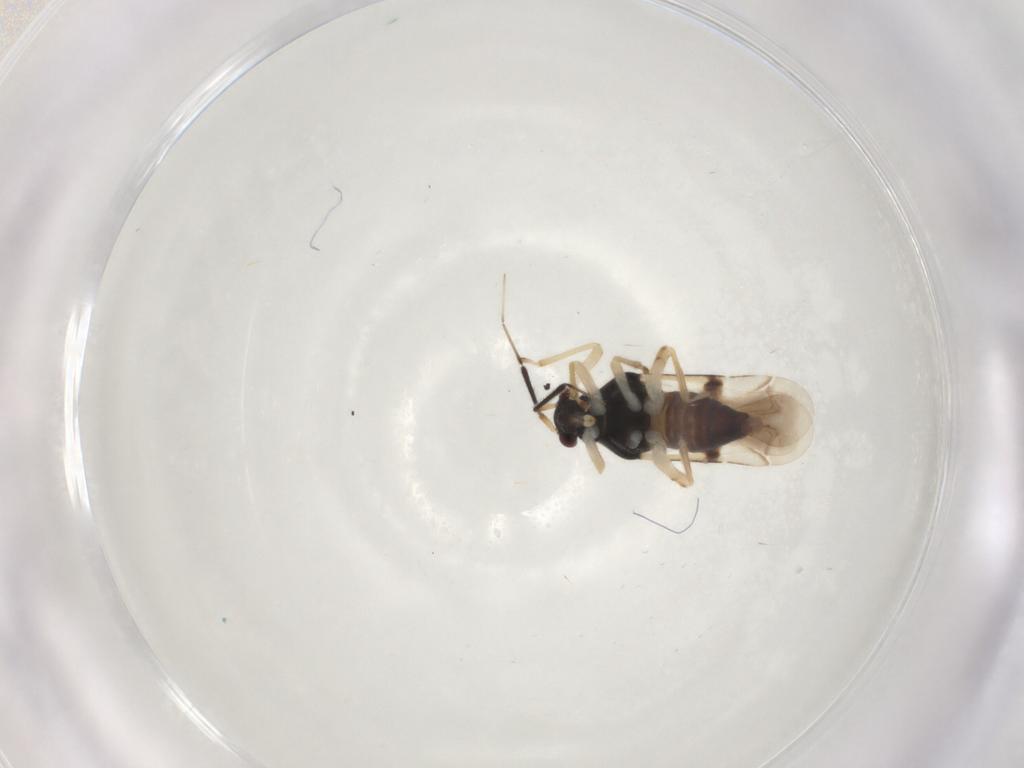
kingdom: Animalia
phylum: Arthropoda
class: Insecta
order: Hemiptera
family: Miridae
